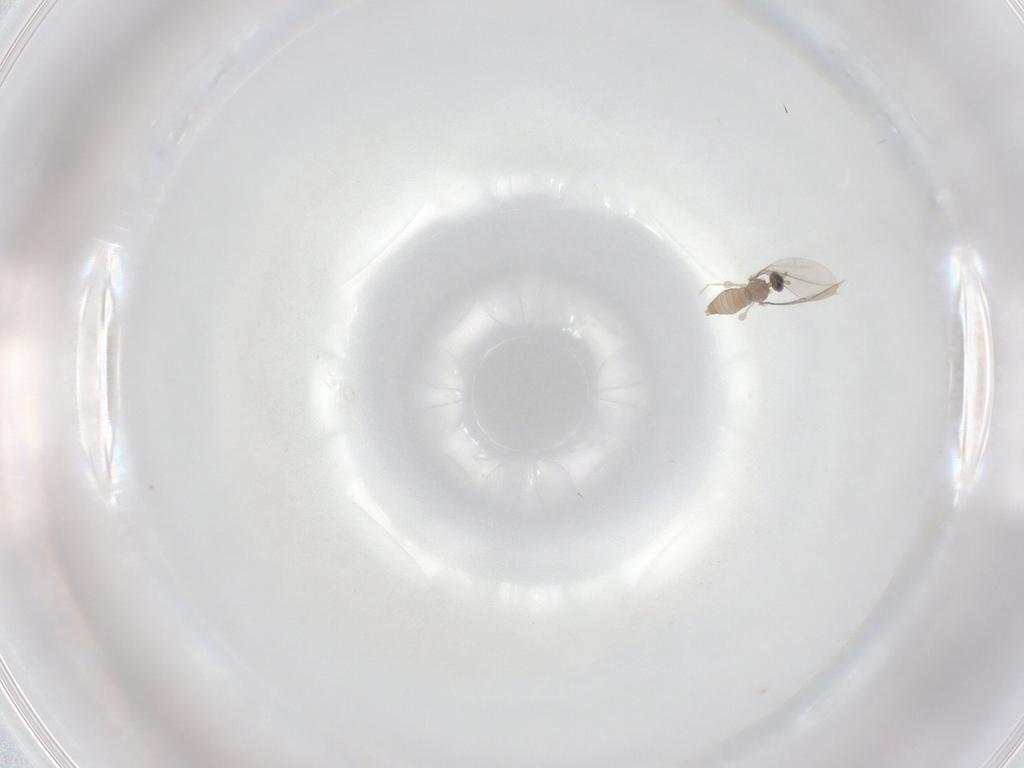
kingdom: Animalia
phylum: Arthropoda
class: Insecta
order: Diptera
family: Cecidomyiidae
